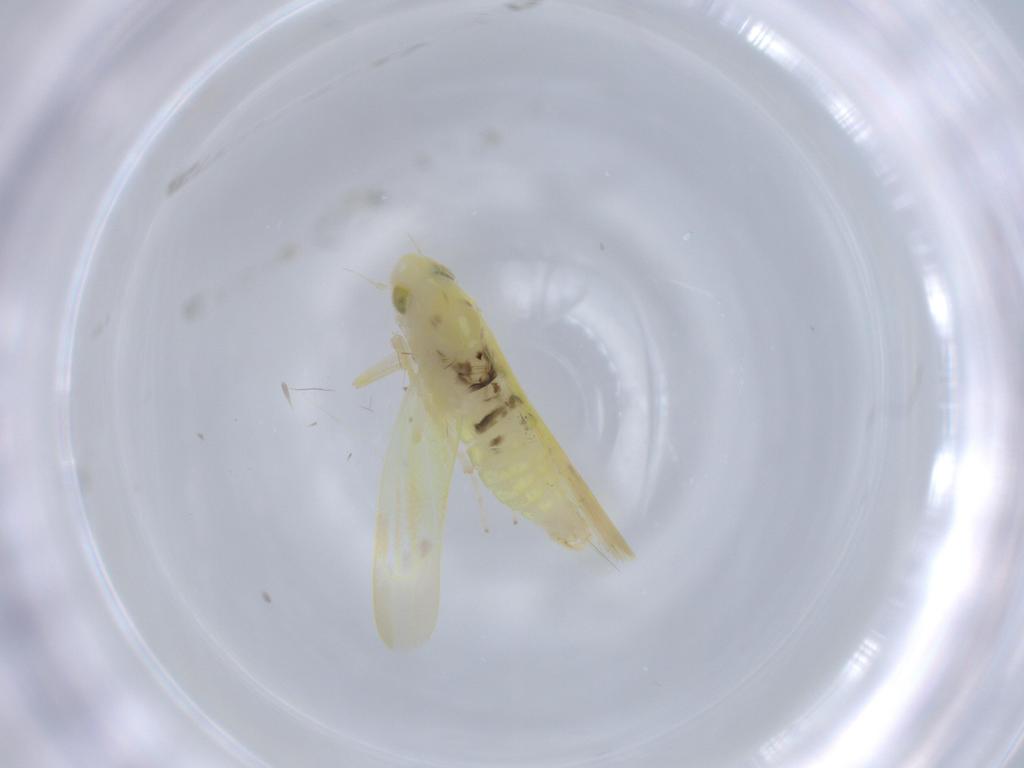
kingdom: Animalia
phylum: Arthropoda
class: Insecta
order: Hemiptera
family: Cicadellidae
